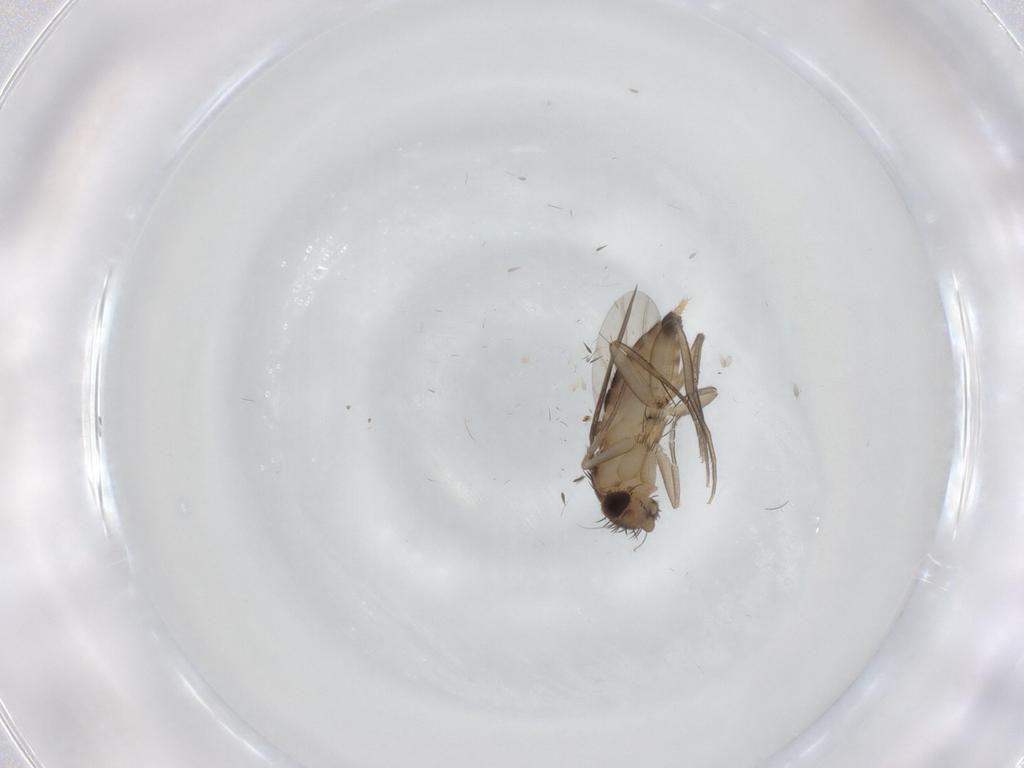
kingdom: Animalia
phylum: Arthropoda
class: Insecta
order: Diptera
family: Phoridae
